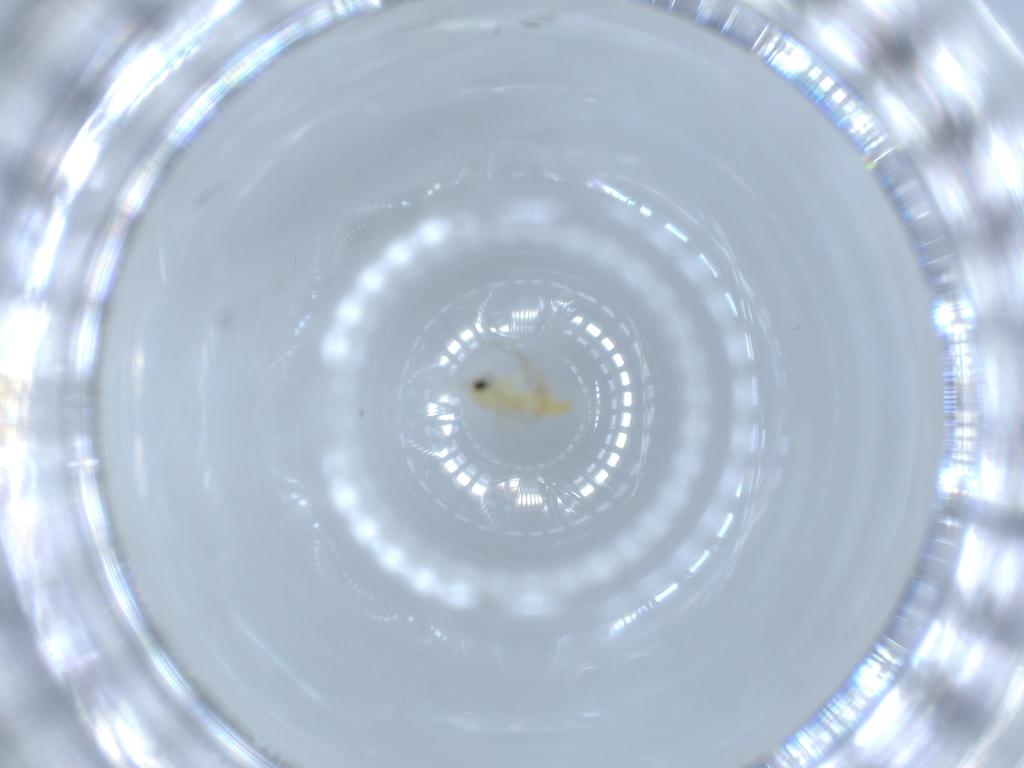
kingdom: Animalia
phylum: Arthropoda
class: Insecta
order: Diptera
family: Chironomidae
